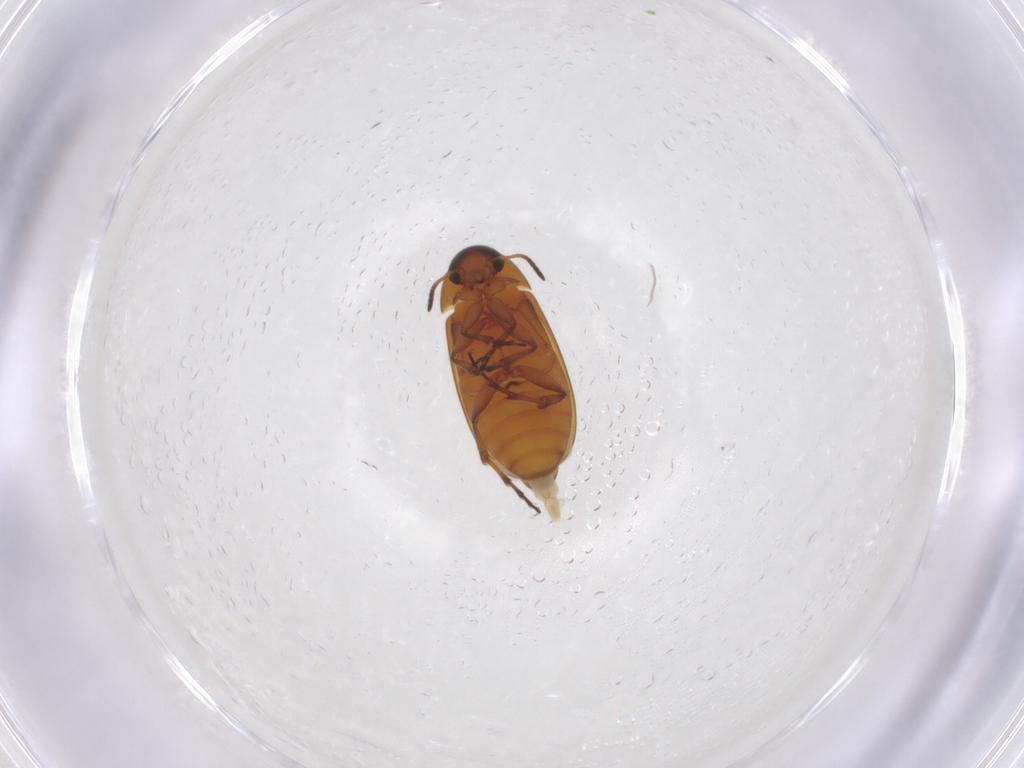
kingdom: Animalia
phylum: Arthropoda
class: Insecta
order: Coleoptera
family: Scraptiidae
